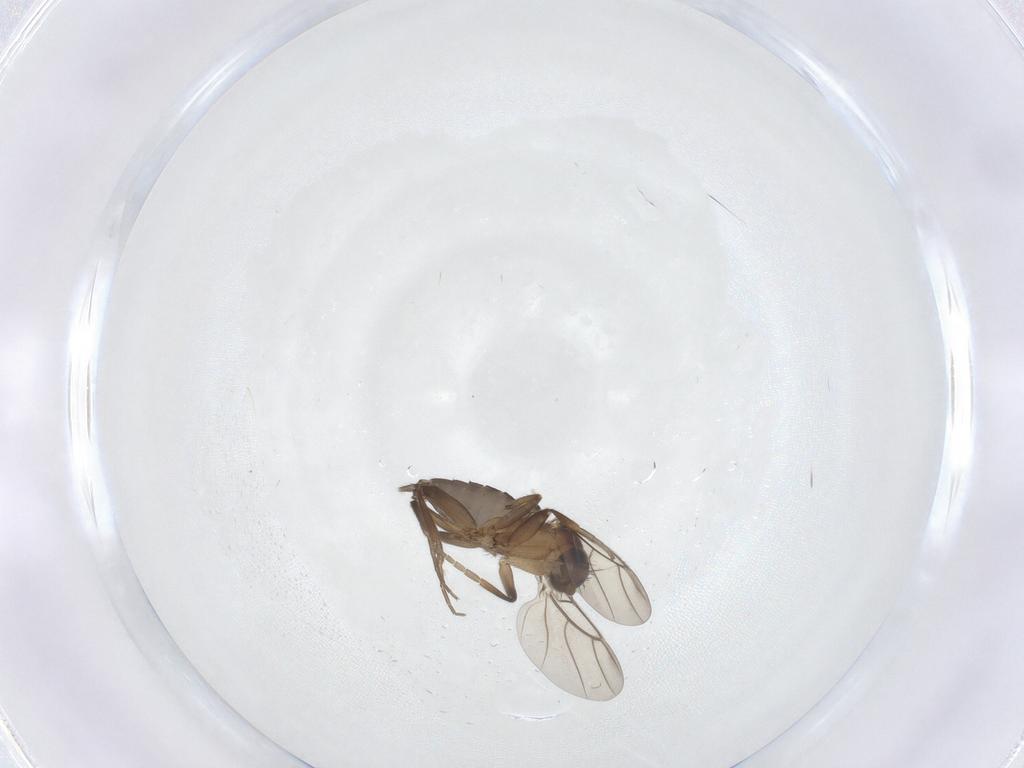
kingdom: Animalia
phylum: Arthropoda
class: Insecta
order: Diptera
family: Phoridae
